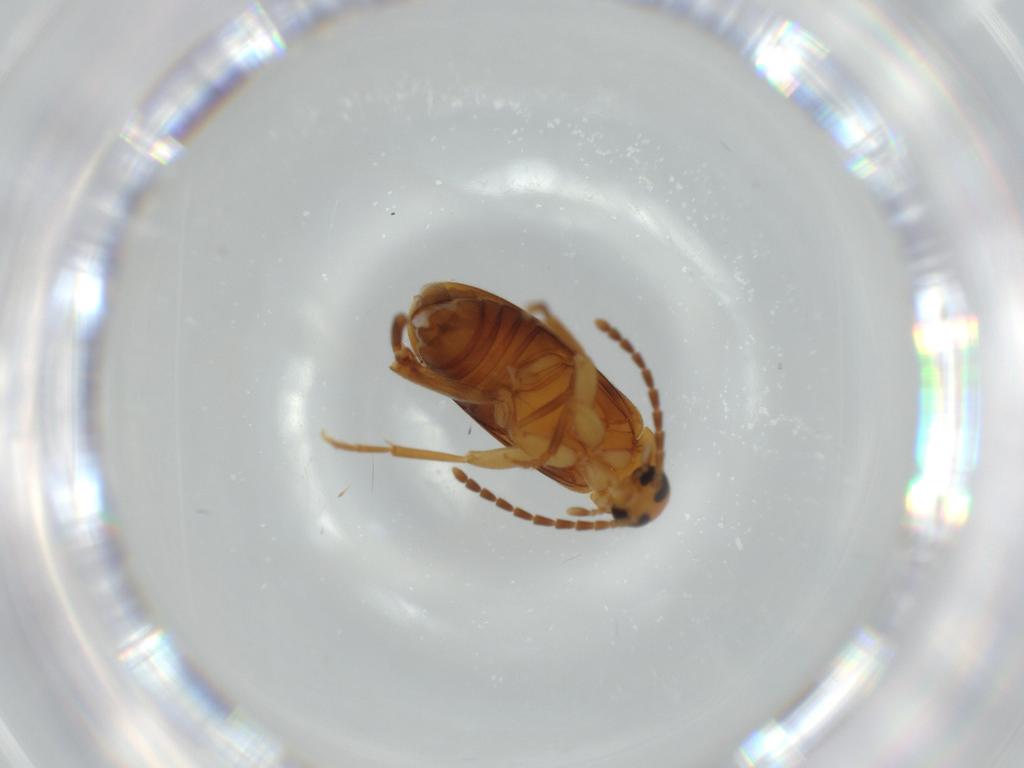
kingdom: Animalia
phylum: Arthropoda
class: Insecta
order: Coleoptera
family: Scraptiidae
